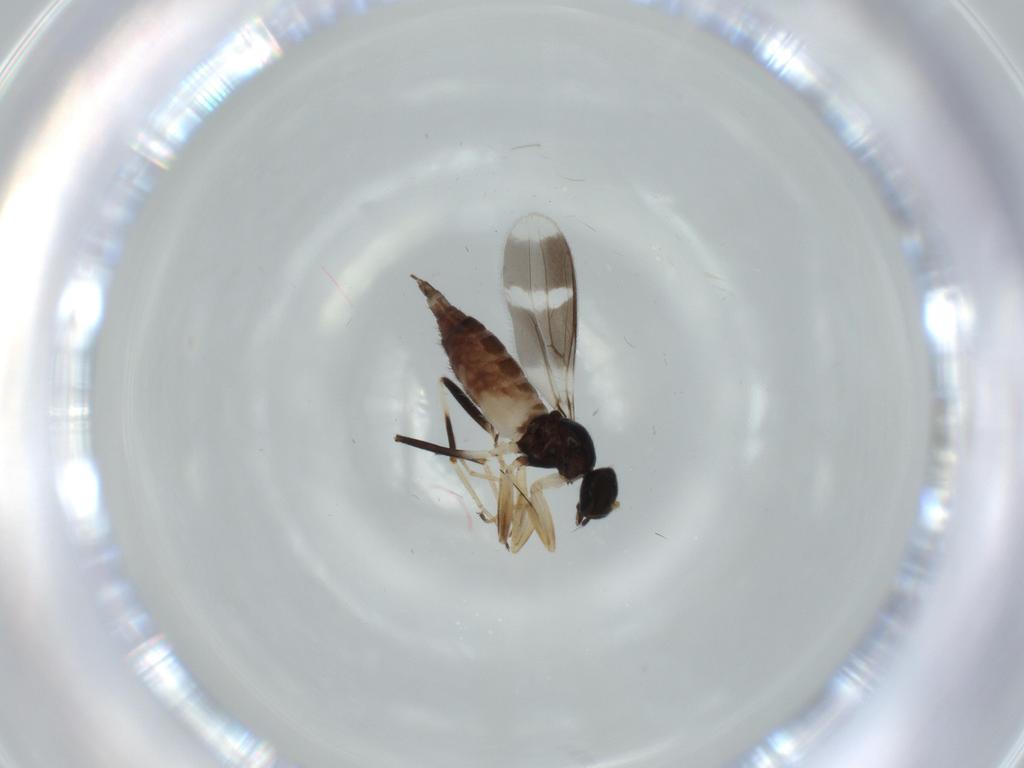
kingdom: Animalia
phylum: Arthropoda
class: Insecta
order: Diptera
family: Hybotidae
